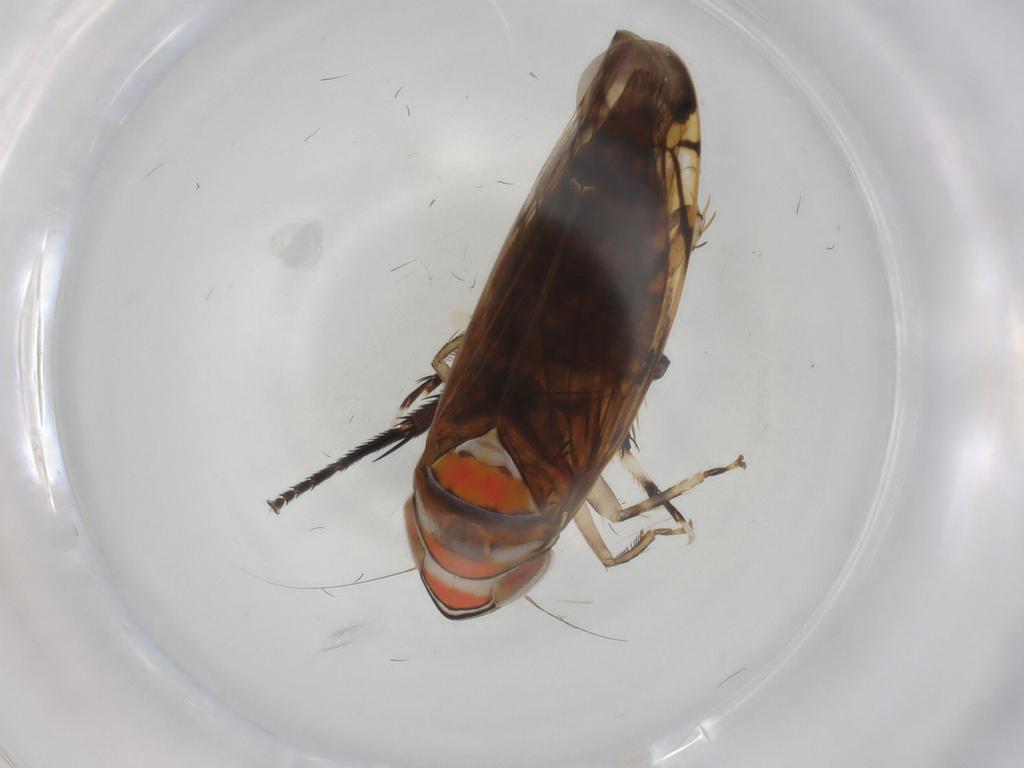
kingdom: Animalia
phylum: Arthropoda
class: Insecta
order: Hemiptera
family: Cicadellidae
